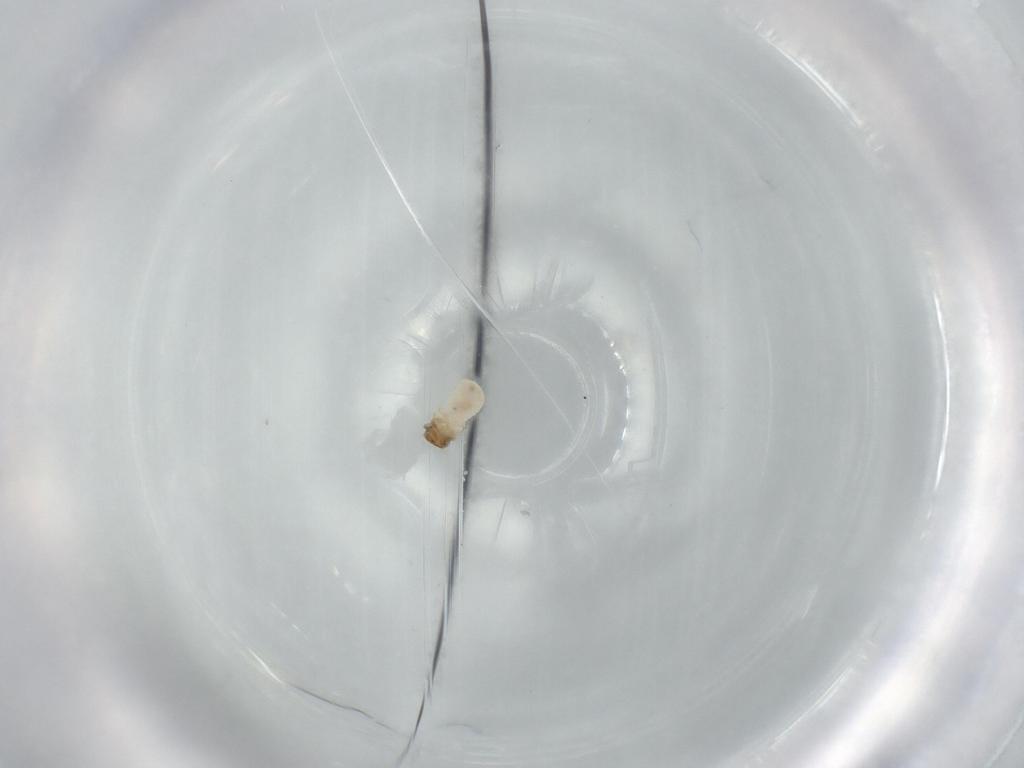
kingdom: Animalia
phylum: Arthropoda
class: Insecta
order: Coleoptera
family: Chrysomelidae
